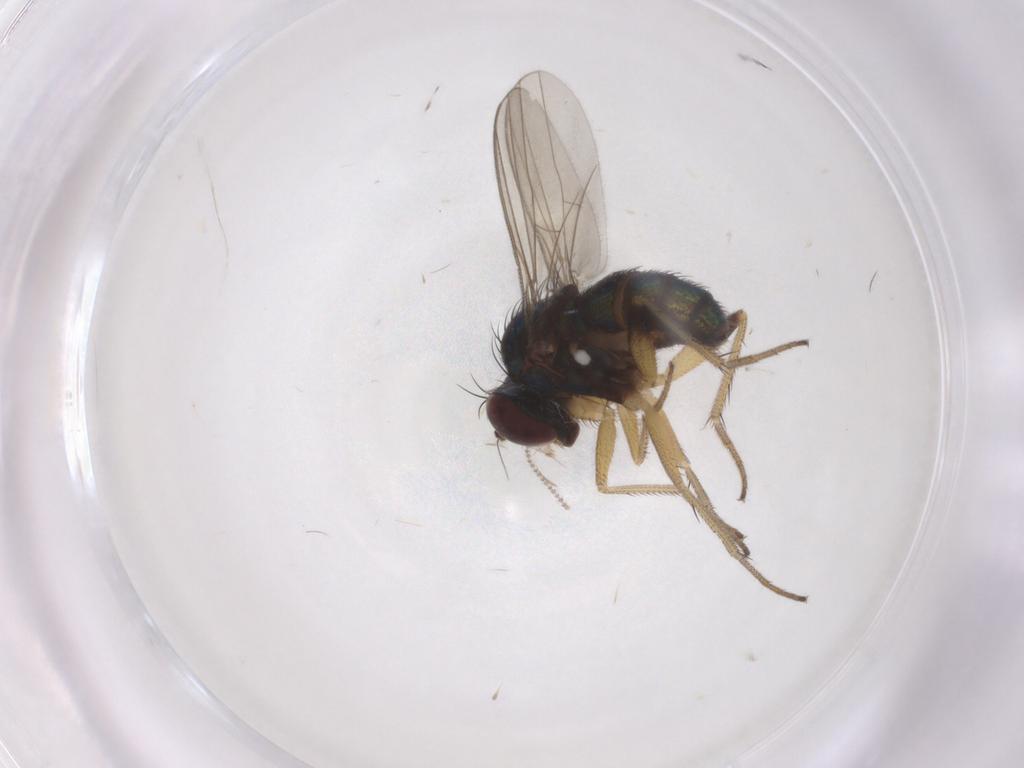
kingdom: Animalia
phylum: Arthropoda
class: Insecta
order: Diptera
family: Cecidomyiidae
